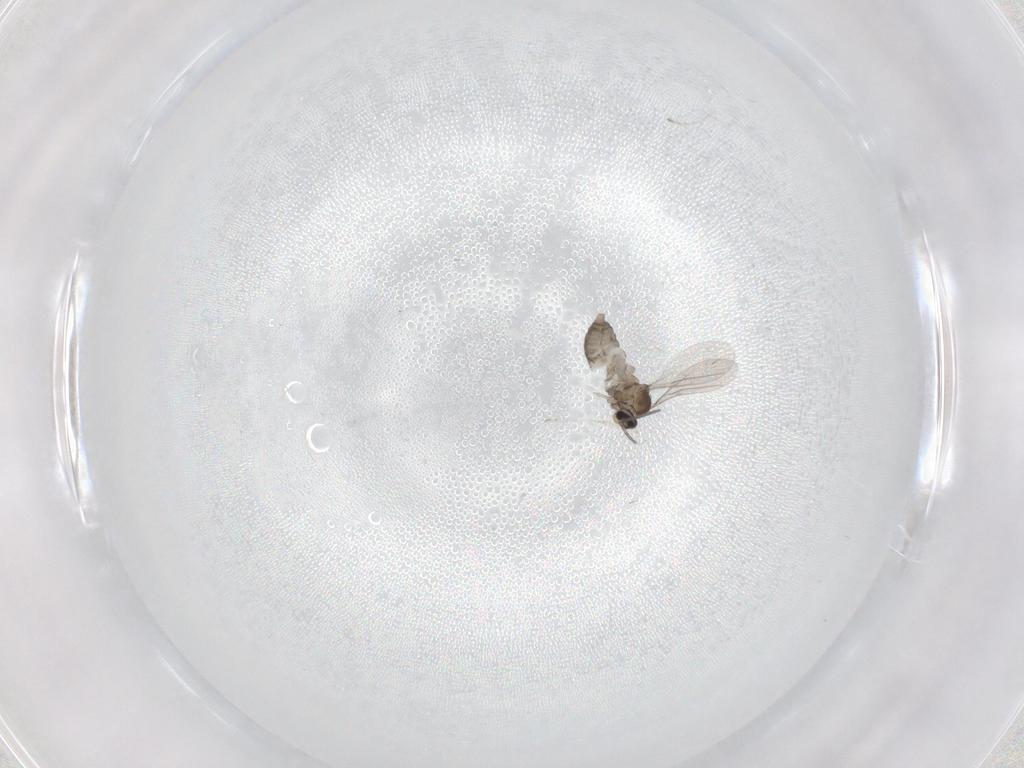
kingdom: Animalia
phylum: Arthropoda
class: Insecta
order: Diptera
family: Cecidomyiidae
